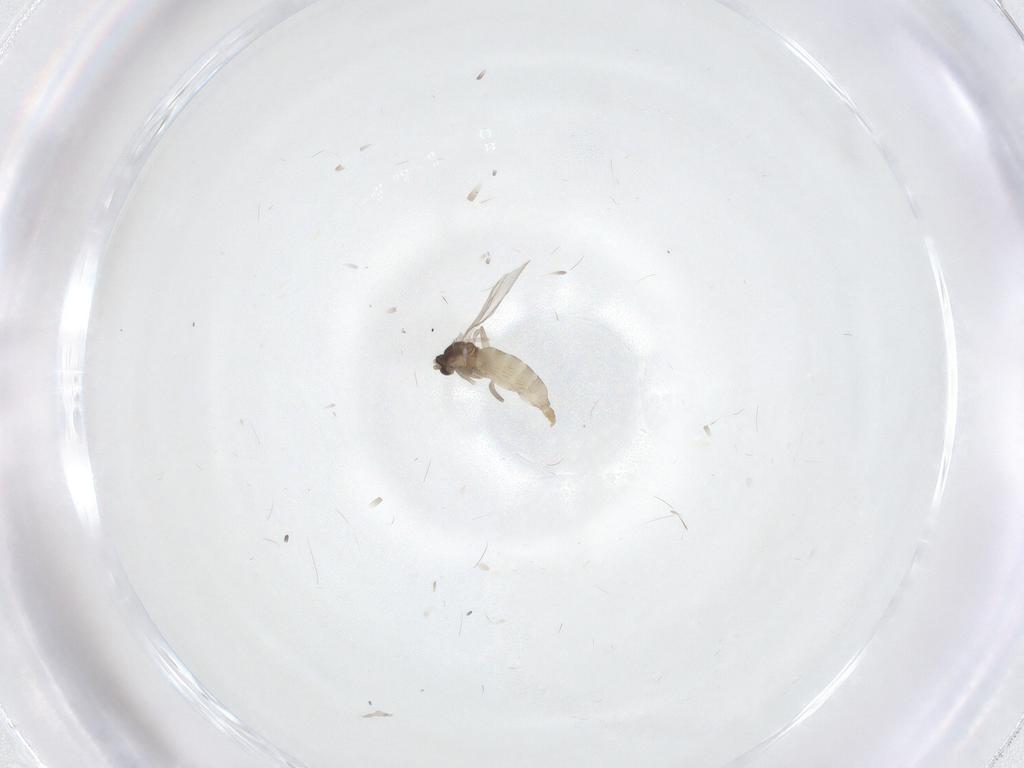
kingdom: Animalia
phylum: Arthropoda
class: Insecta
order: Diptera
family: Cecidomyiidae
